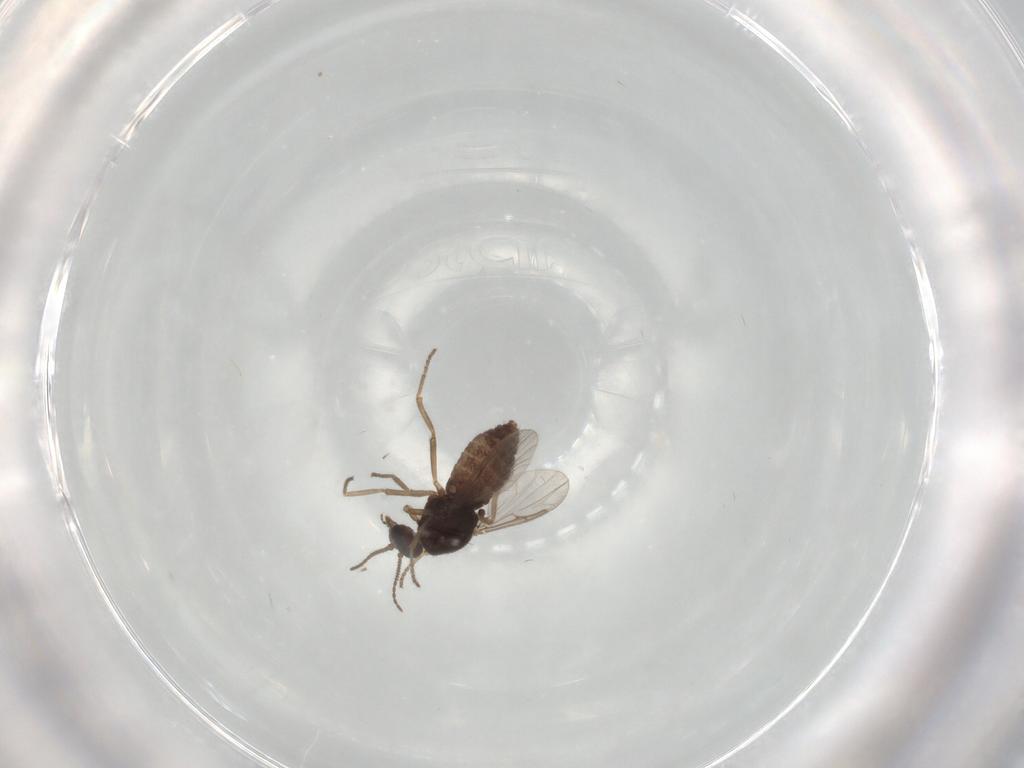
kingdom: Animalia
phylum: Arthropoda
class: Insecta
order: Diptera
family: Ceratopogonidae
